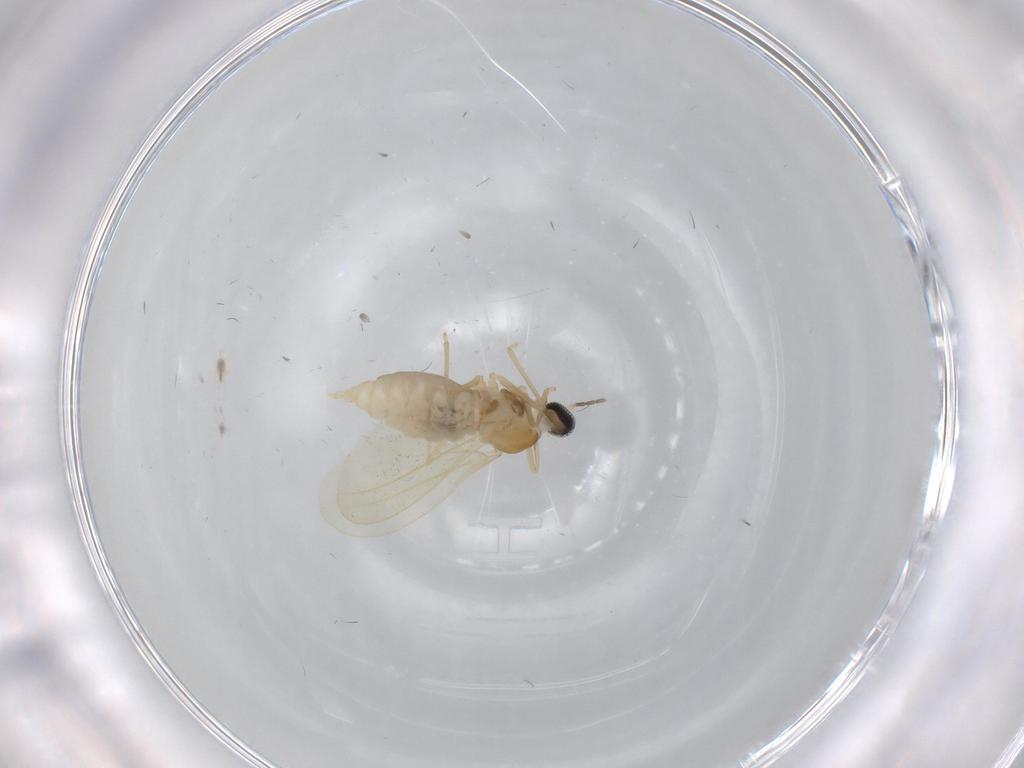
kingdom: Animalia
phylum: Arthropoda
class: Insecta
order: Diptera
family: Cecidomyiidae
